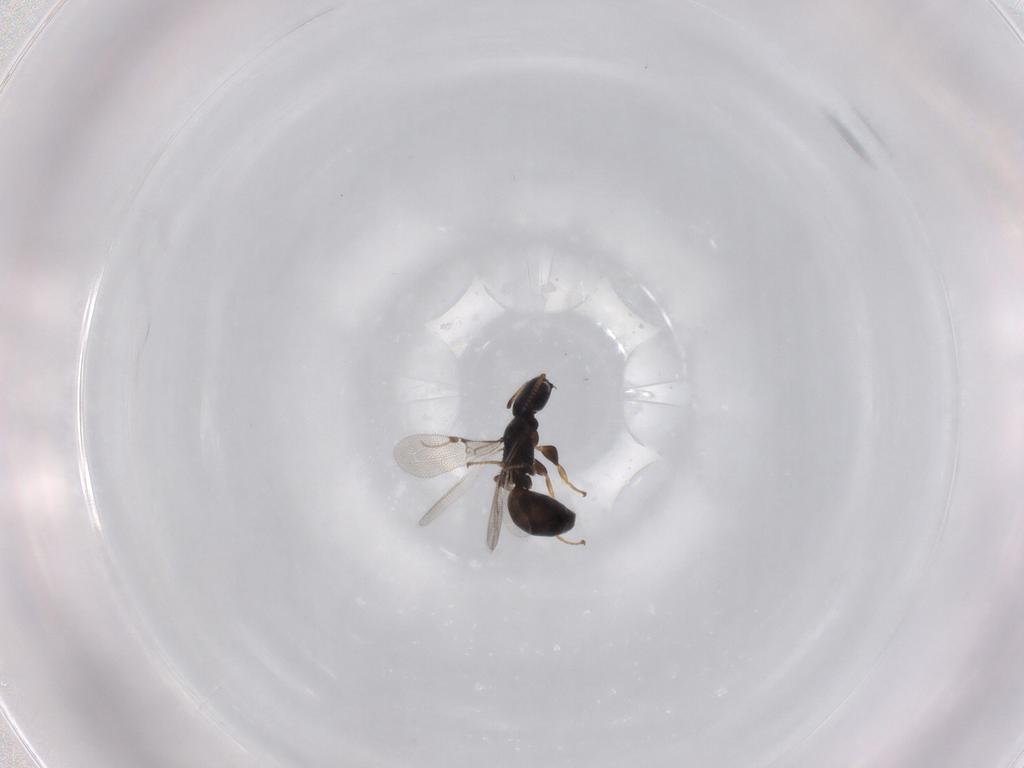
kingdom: Animalia
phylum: Arthropoda
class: Insecta
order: Hymenoptera
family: Bethylidae
